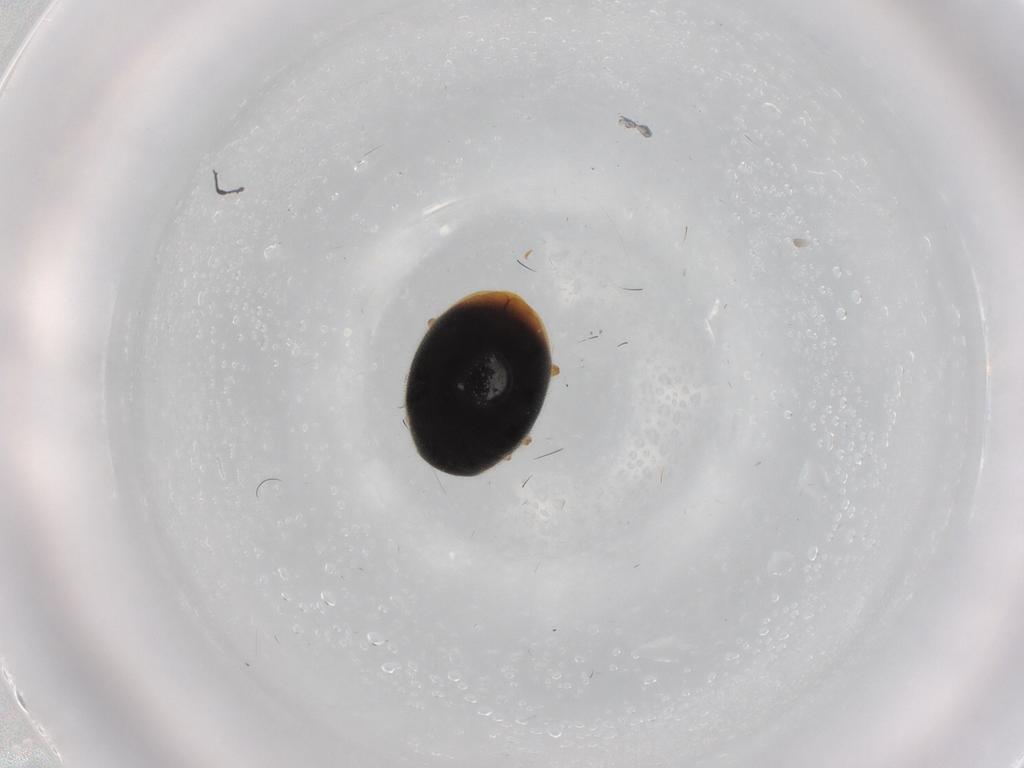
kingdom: Animalia
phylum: Arthropoda
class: Insecta
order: Coleoptera
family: Coccinellidae
